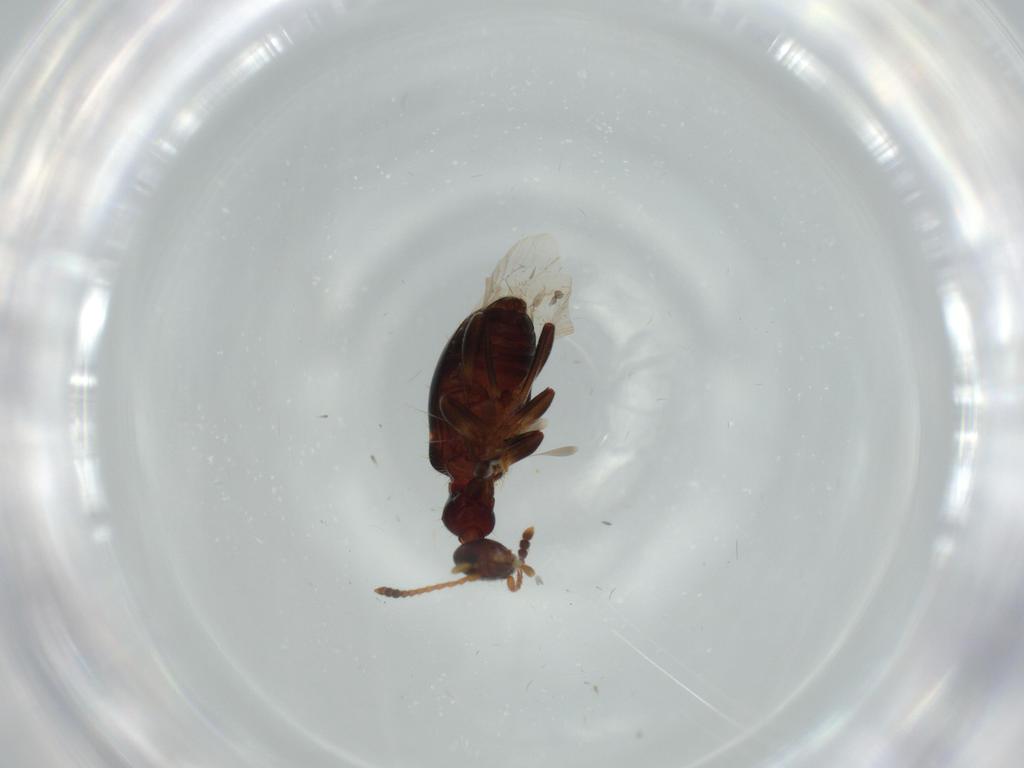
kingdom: Animalia
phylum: Arthropoda
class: Insecta
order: Coleoptera
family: Anthicidae
